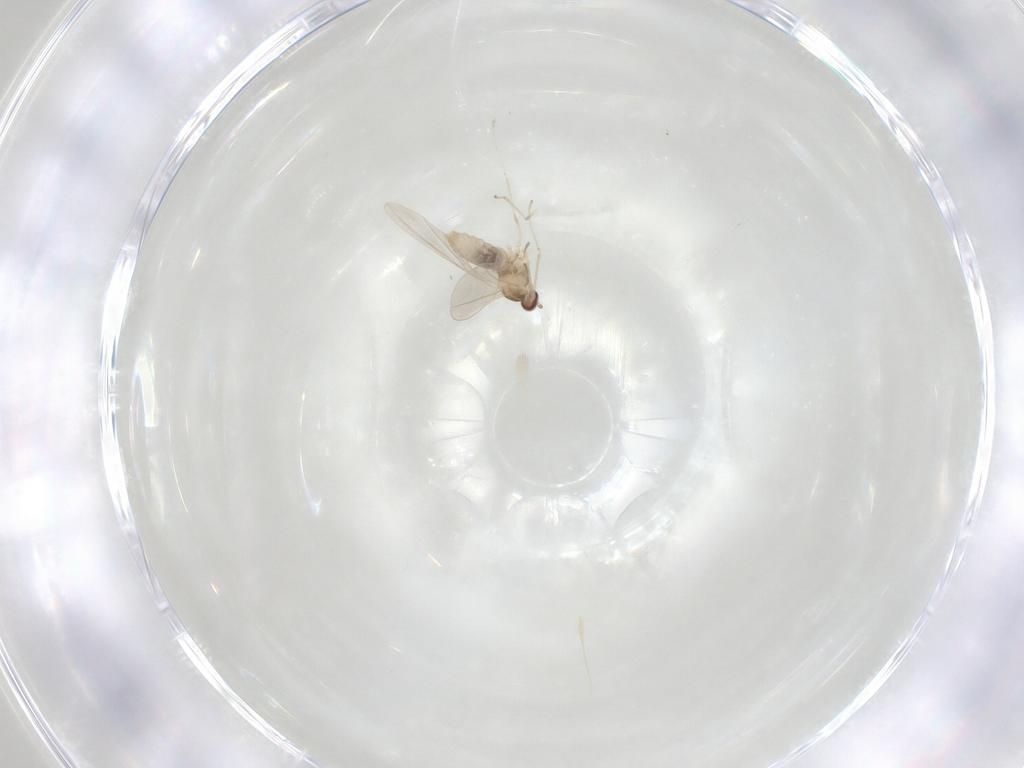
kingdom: Animalia
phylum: Arthropoda
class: Insecta
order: Diptera
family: Cecidomyiidae
